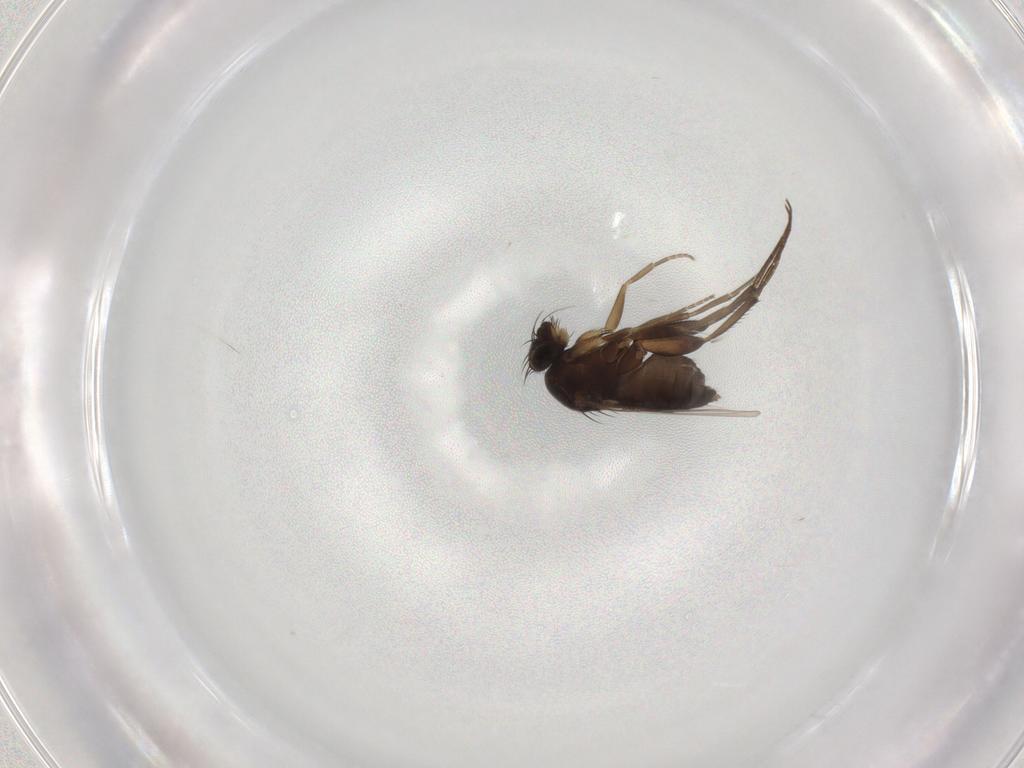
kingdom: Animalia
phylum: Arthropoda
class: Insecta
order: Diptera
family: Phoridae
